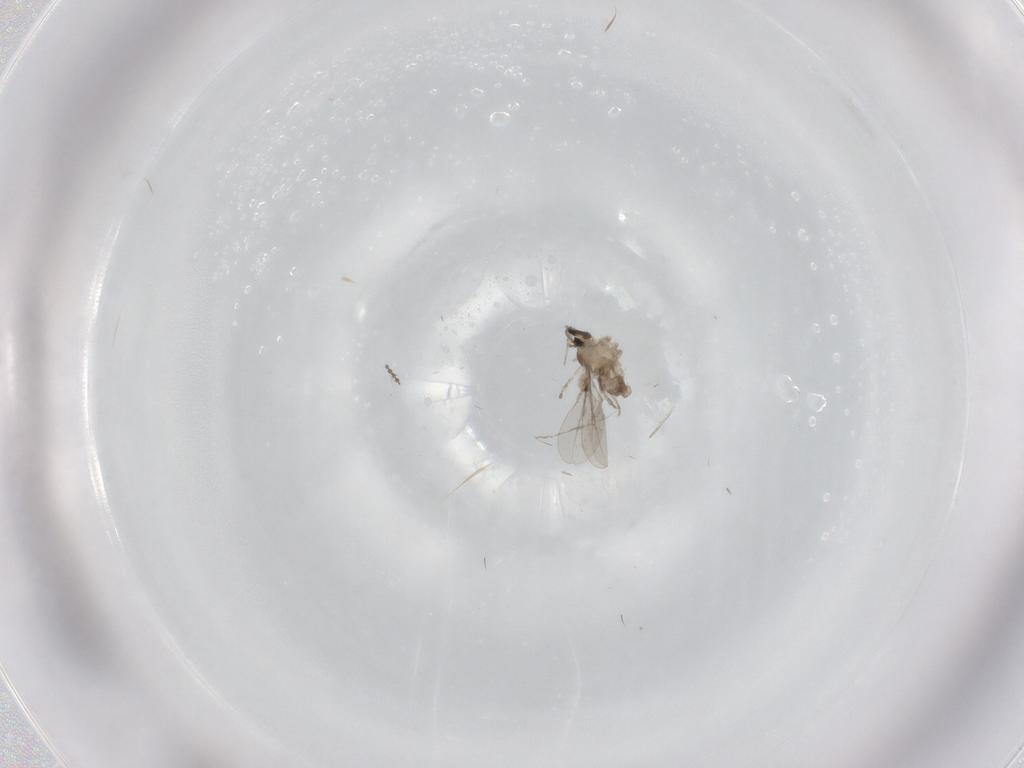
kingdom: Animalia
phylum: Arthropoda
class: Insecta
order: Diptera
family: Cecidomyiidae
